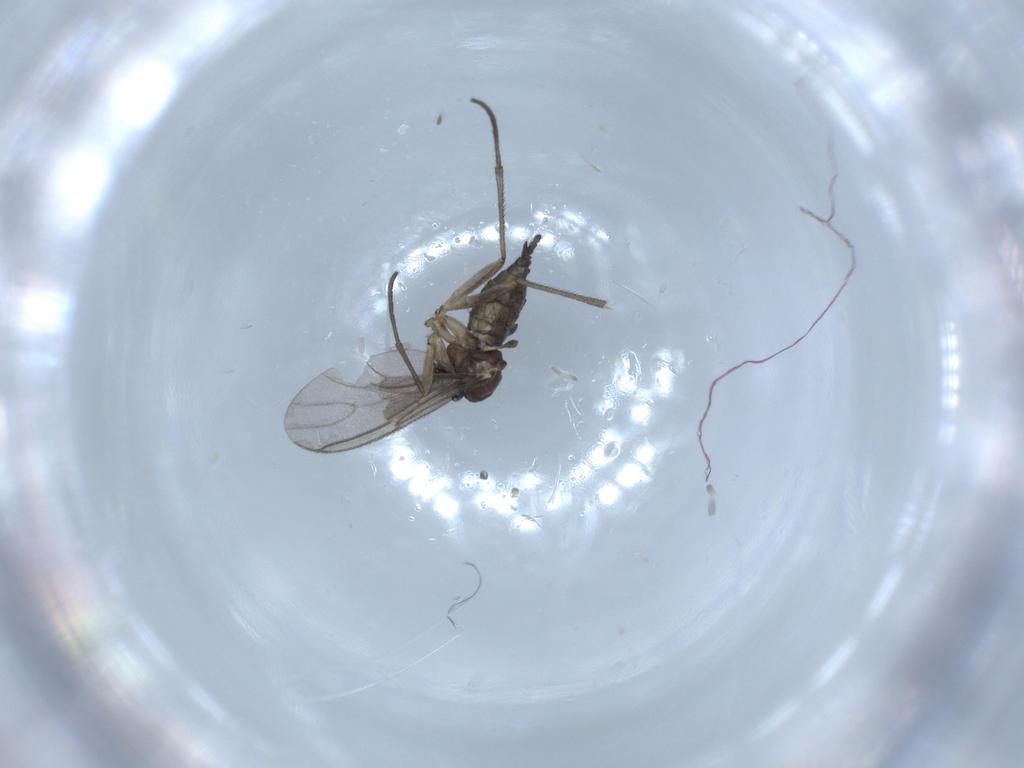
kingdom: Animalia
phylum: Arthropoda
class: Insecta
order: Diptera
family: Sciaridae
